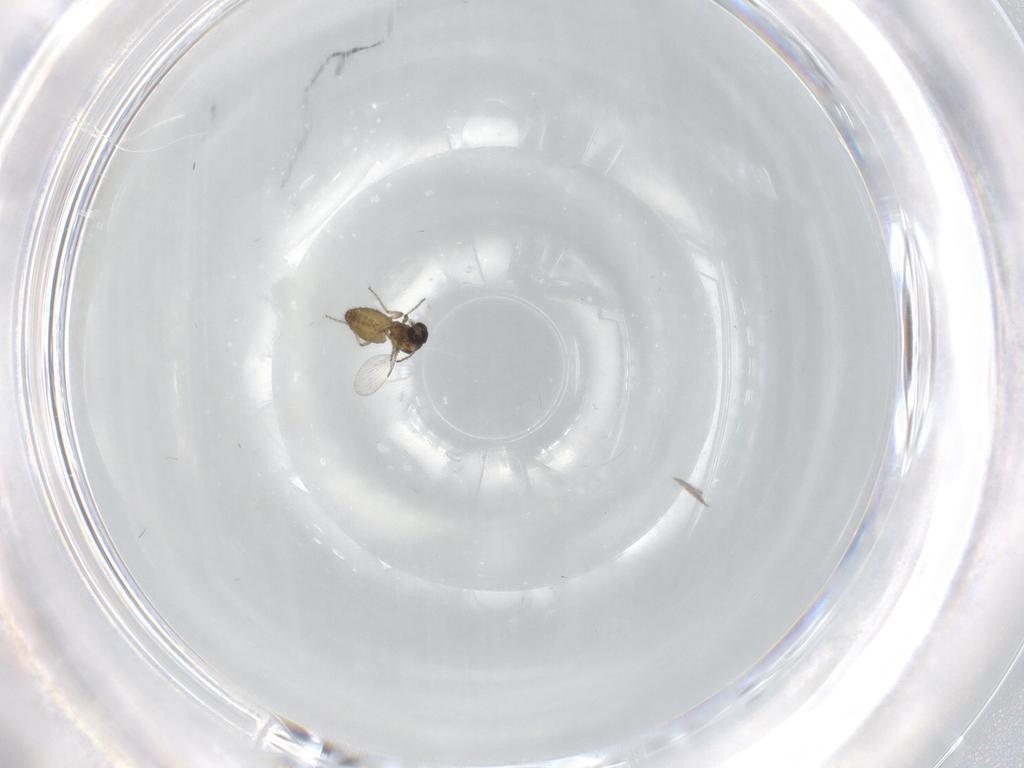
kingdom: Animalia
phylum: Arthropoda
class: Insecta
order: Diptera
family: Ceratopogonidae
